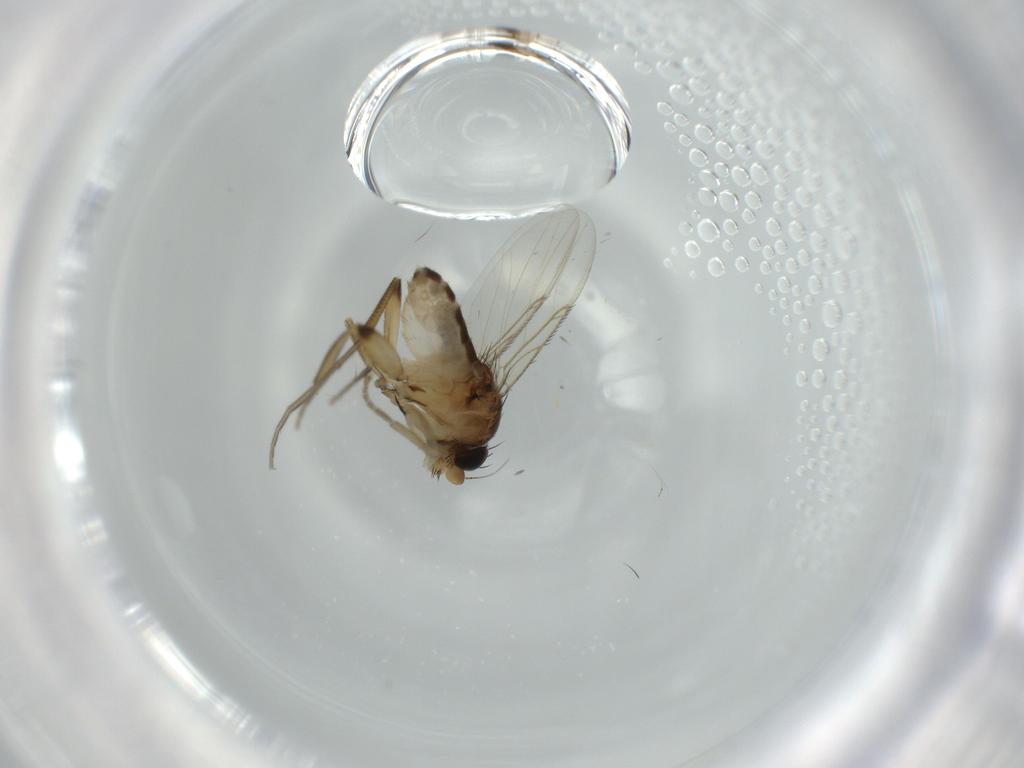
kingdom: Animalia
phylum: Arthropoda
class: Insecta
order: Diptera
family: Phoridae
